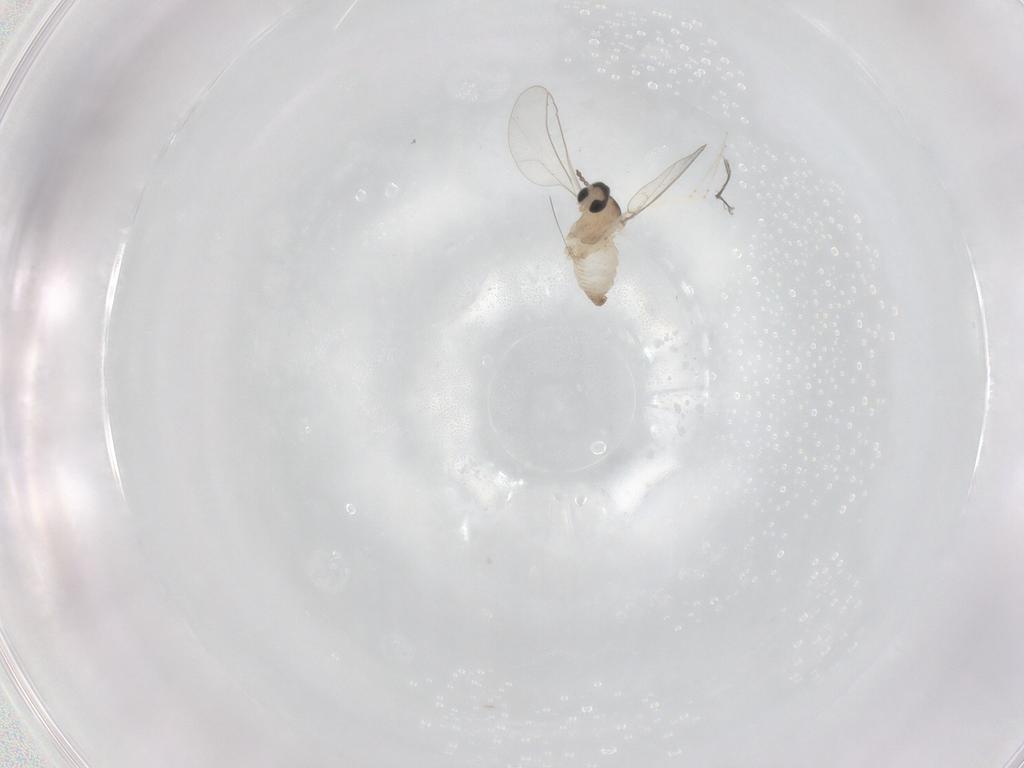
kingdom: Animalia
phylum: Arthropoda
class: Insecta
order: Diptera
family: Cecidomyiidae
